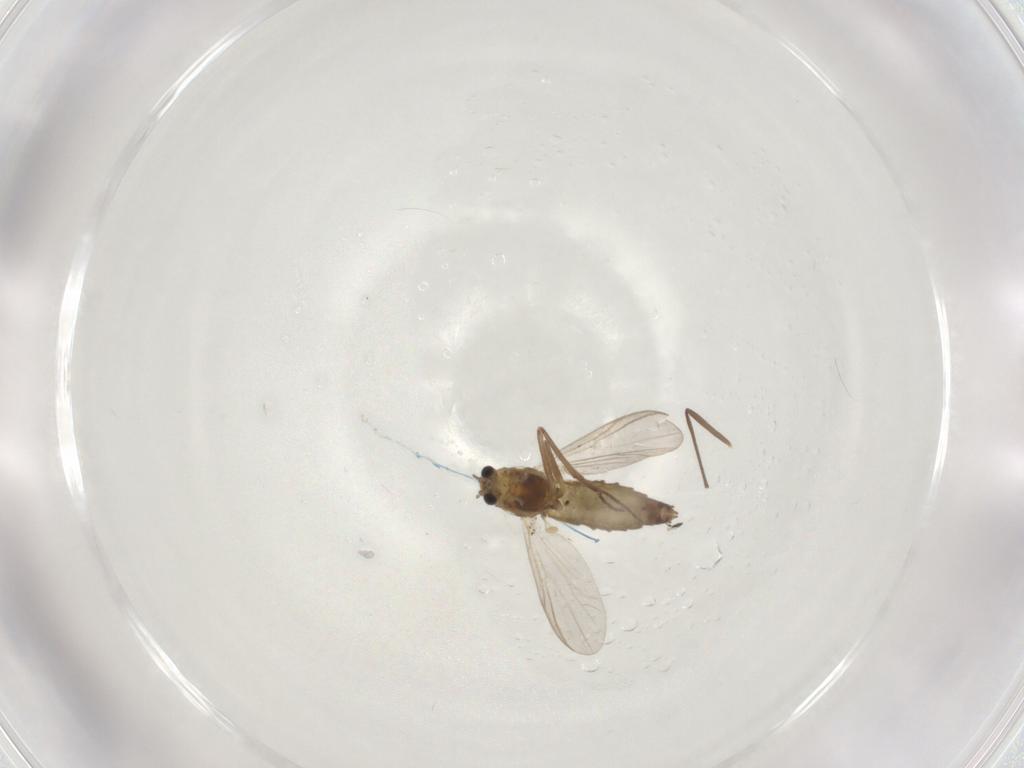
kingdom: Animalia
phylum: Arthropoda
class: Insecta
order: Diptera
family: Chironomidae
